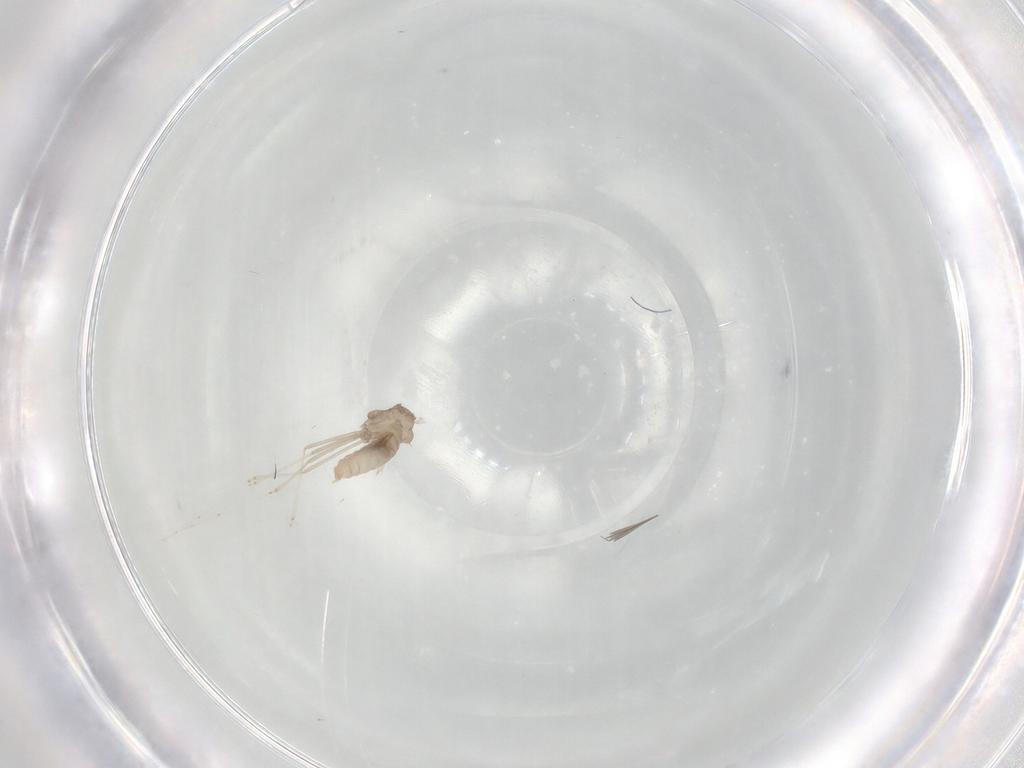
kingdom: Animalia
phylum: Arthropoda
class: Insecta
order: Diptera
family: Cecidomyiidae
